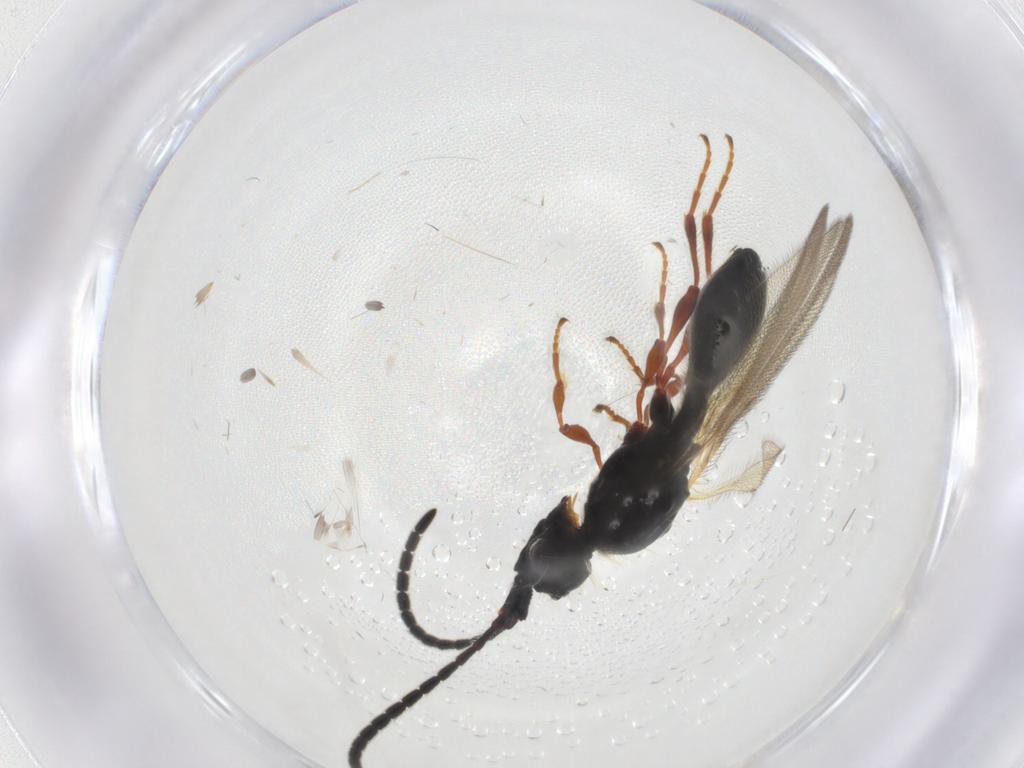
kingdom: Animalia
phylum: Arthropoda
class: Insecta
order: Hymenoptera
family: Diapriidae
